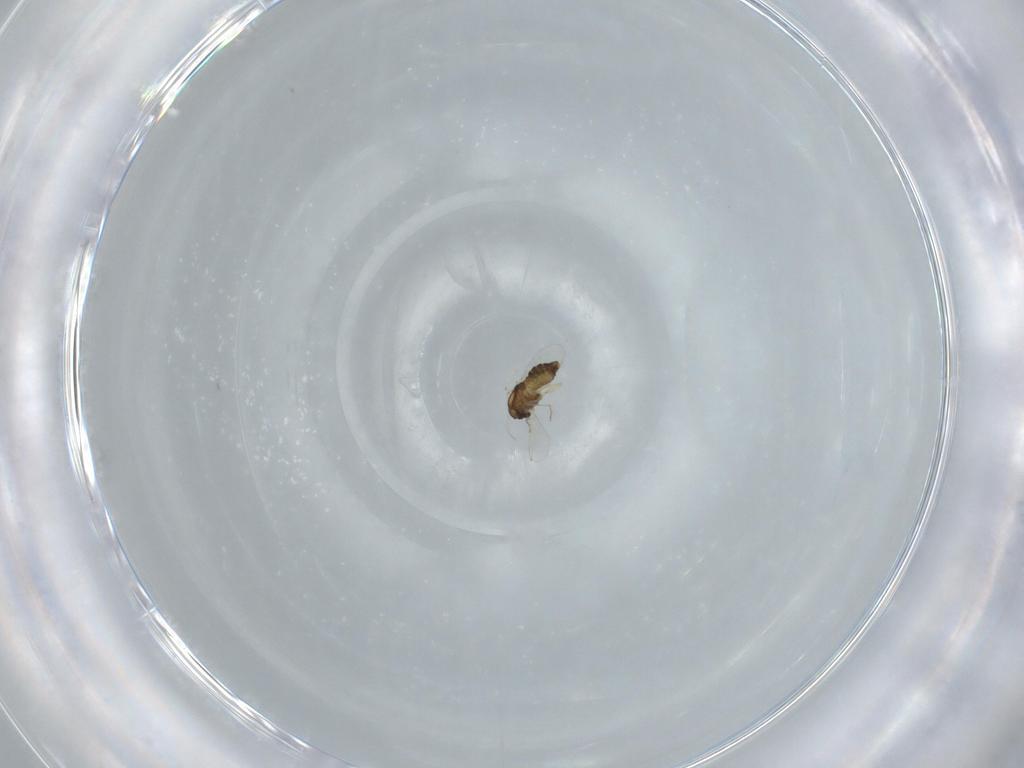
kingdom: Animalia
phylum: Arthropoda
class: Insecta
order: Diptera
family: Chironomidae
